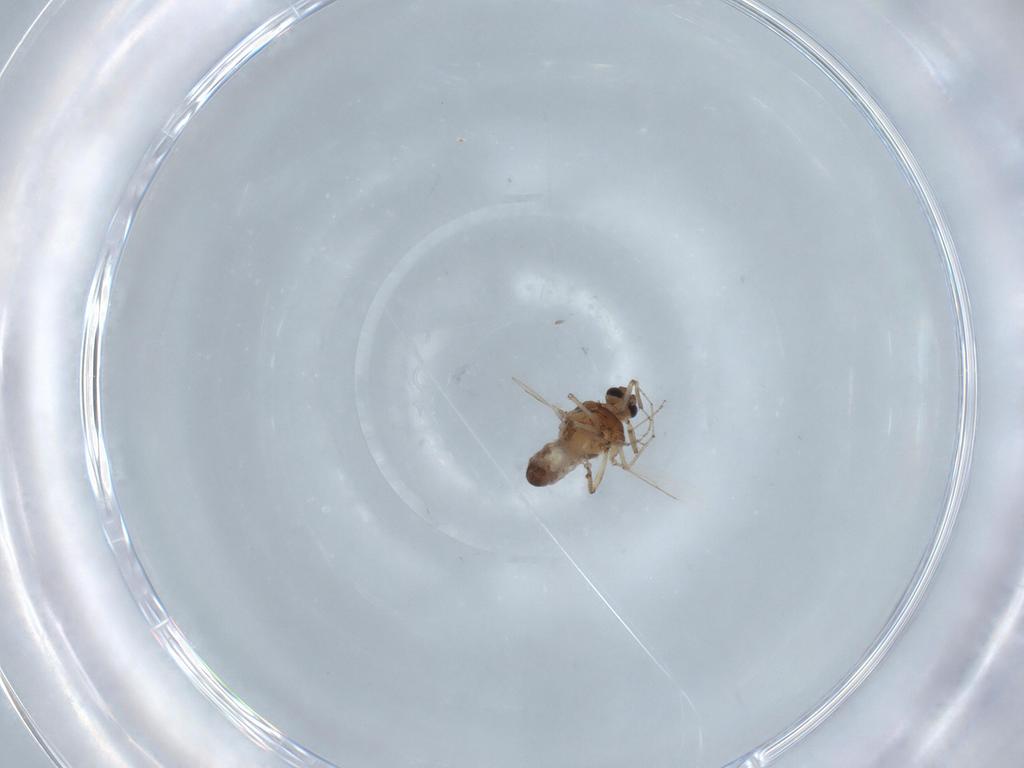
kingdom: Animalia
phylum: Arthropoda
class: Insecta
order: Diptera
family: Ceratopogonidae
